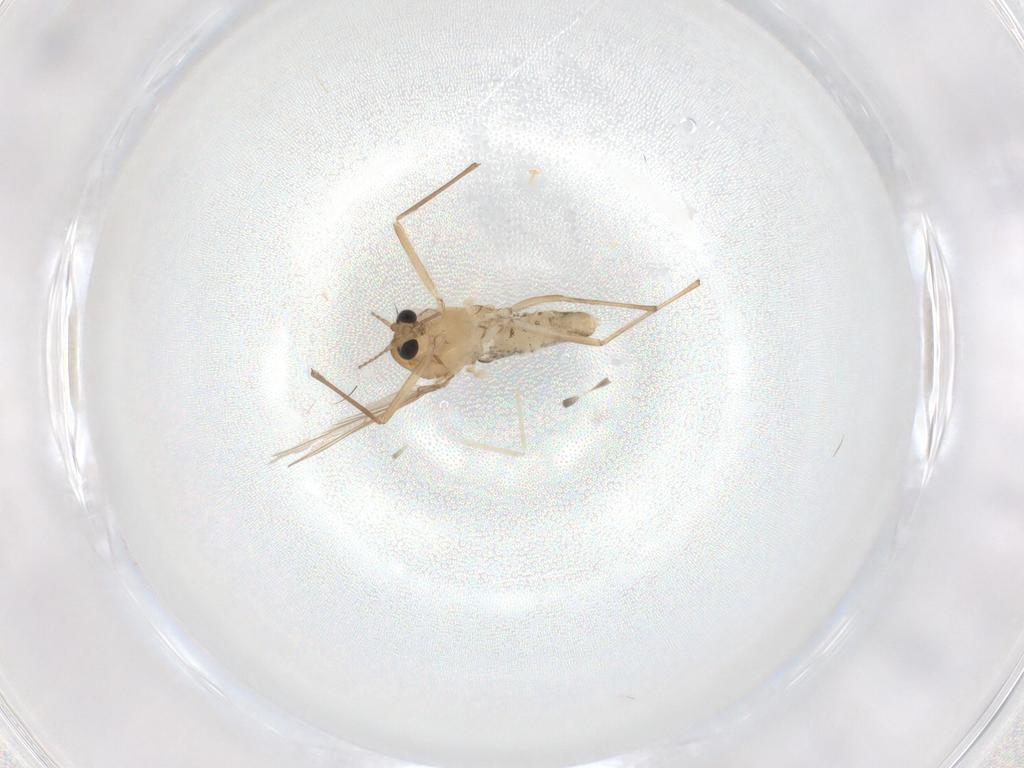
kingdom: Animalia
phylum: Arthropoda
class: Insecta
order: Diptera
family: Chironomidae
